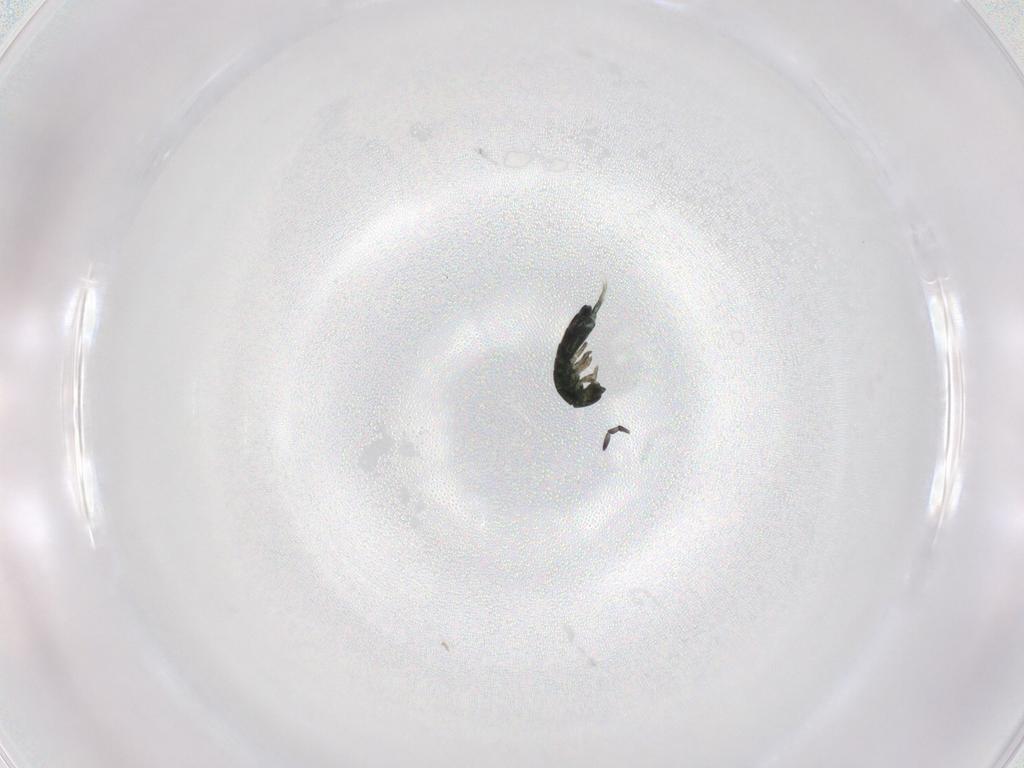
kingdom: Animalia
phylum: Arthropoda
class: Collembola
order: Entomobryomorpha
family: Isotomidae
